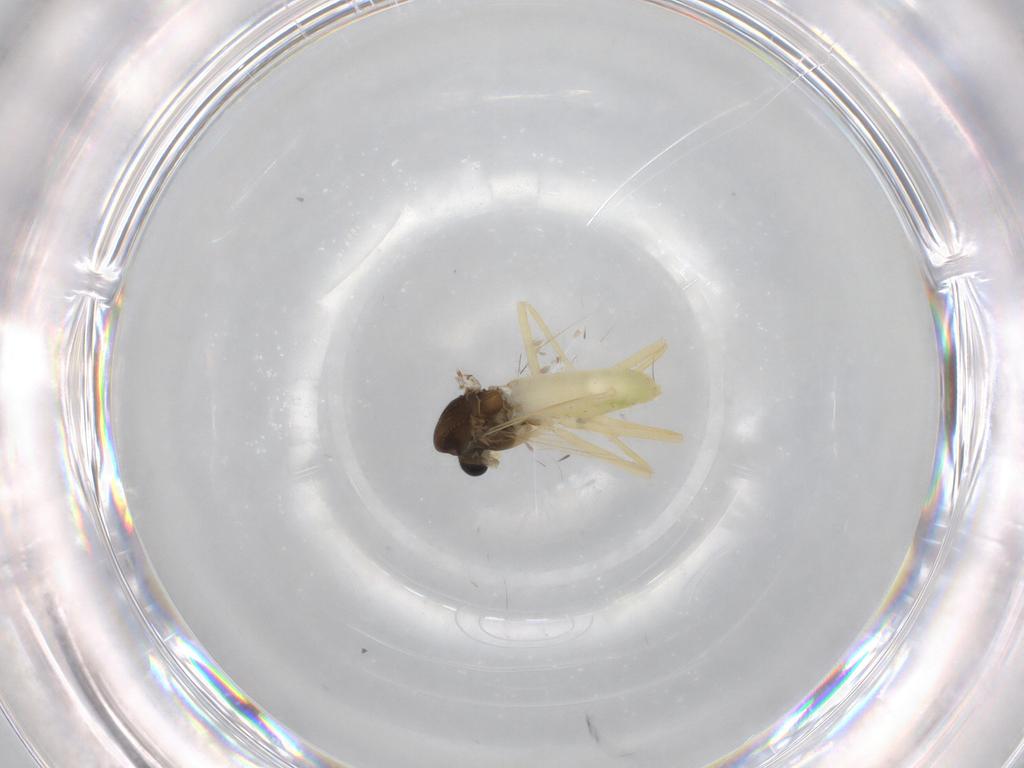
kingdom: Animalia
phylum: Arthropoda
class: Insecta
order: Diptera
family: Chironomidae
